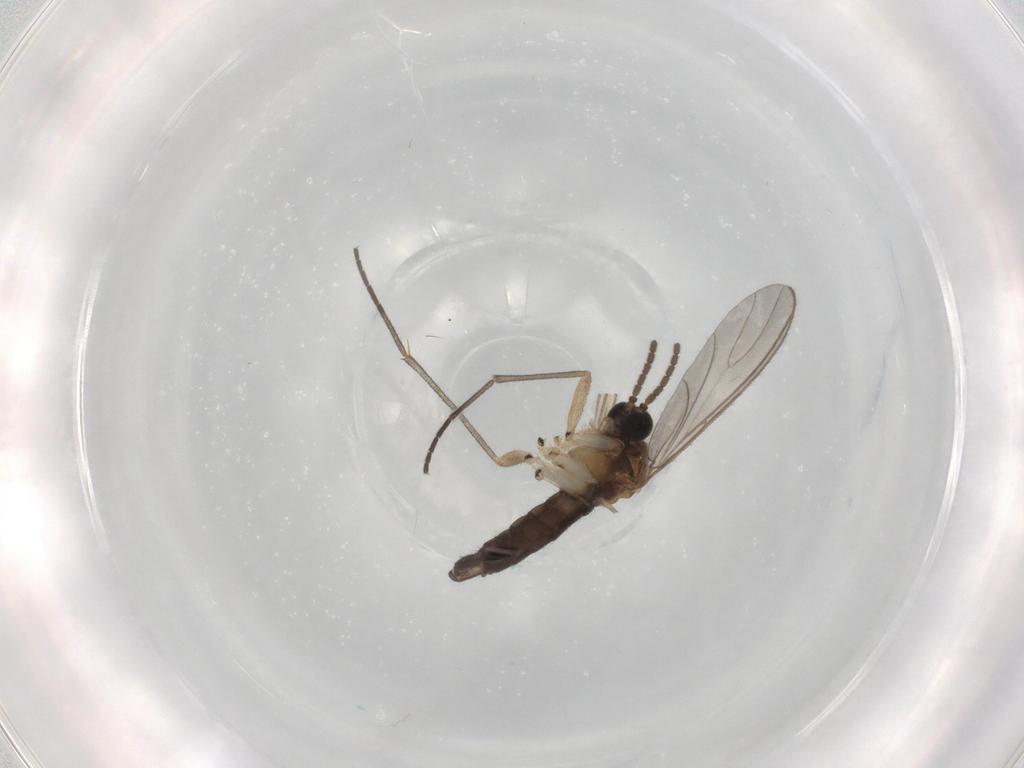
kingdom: Animalia
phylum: Arthropoda
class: Insecta
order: Diptera
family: Sciaridae
